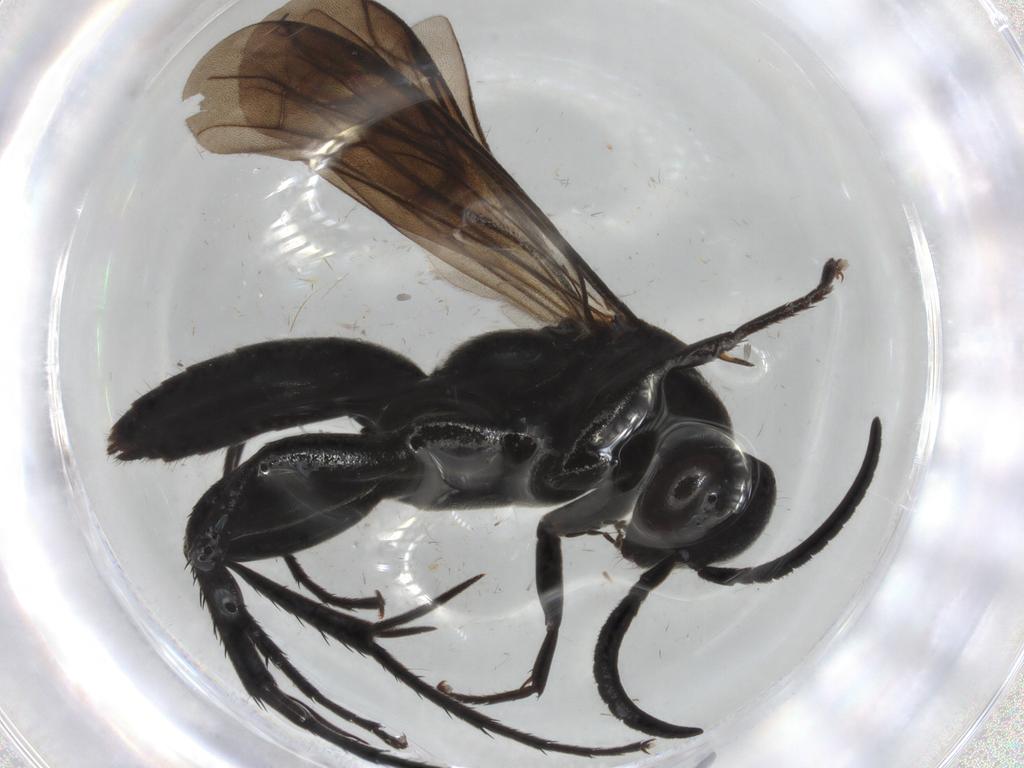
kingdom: Animalia
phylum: Arthropoda
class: Insecta
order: Hymenoptera
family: Pompilidae
